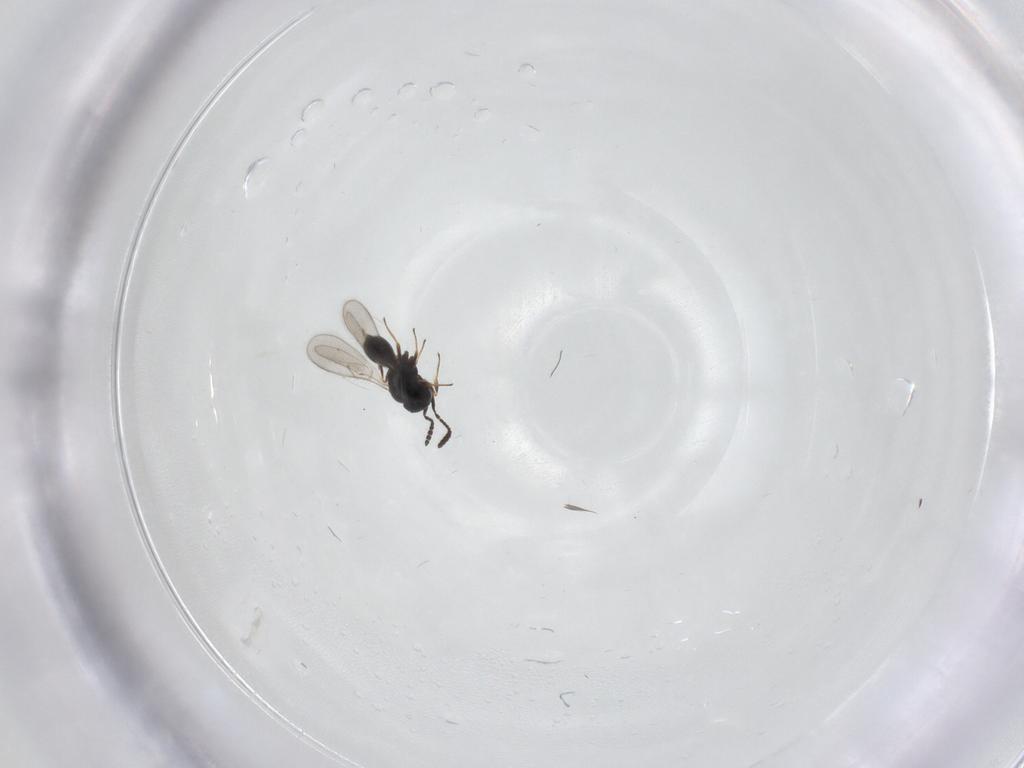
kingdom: Animalia
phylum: Arthropoda
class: Insecta
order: Hymenoptera
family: Scelionidae
